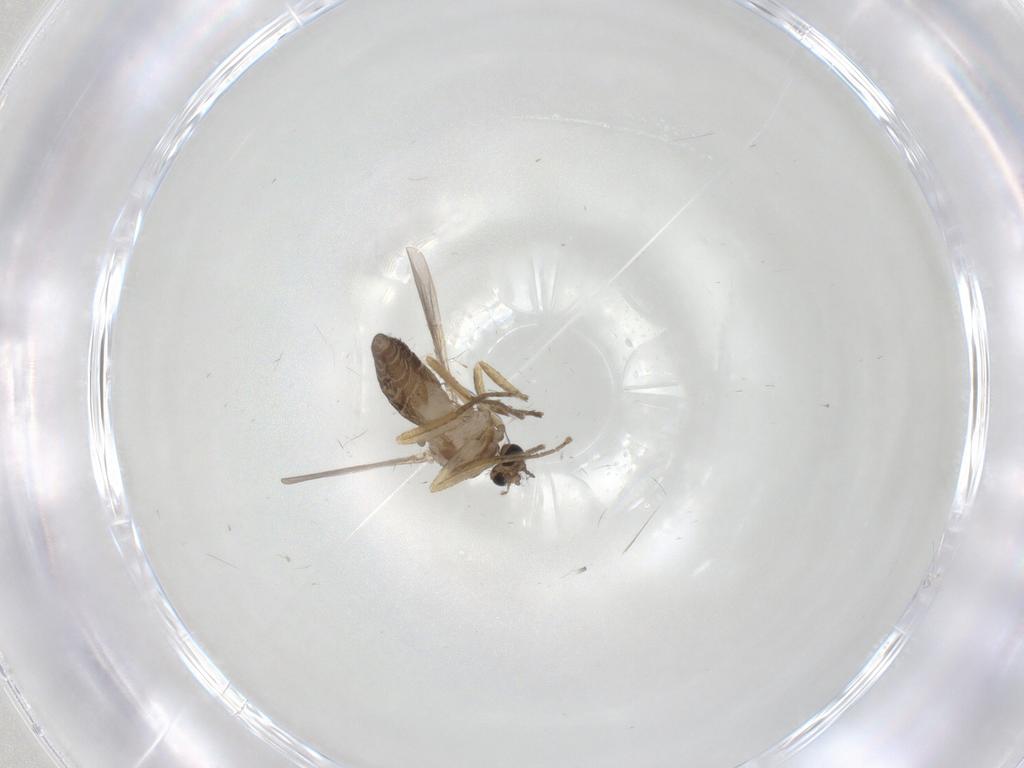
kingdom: Animalia
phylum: Arthropoda
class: Insecta
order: Diptera
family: Ceratopogonidae
